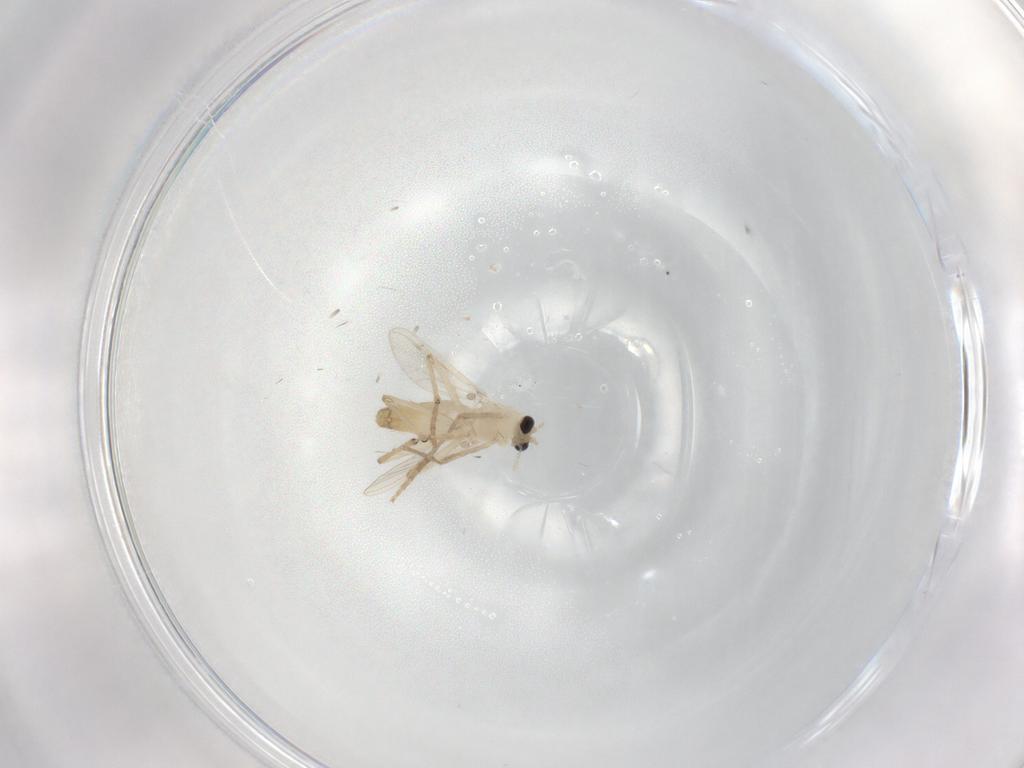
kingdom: Animalia
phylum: Arthropoda
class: Insecta
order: Diptera
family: Chironomidae
